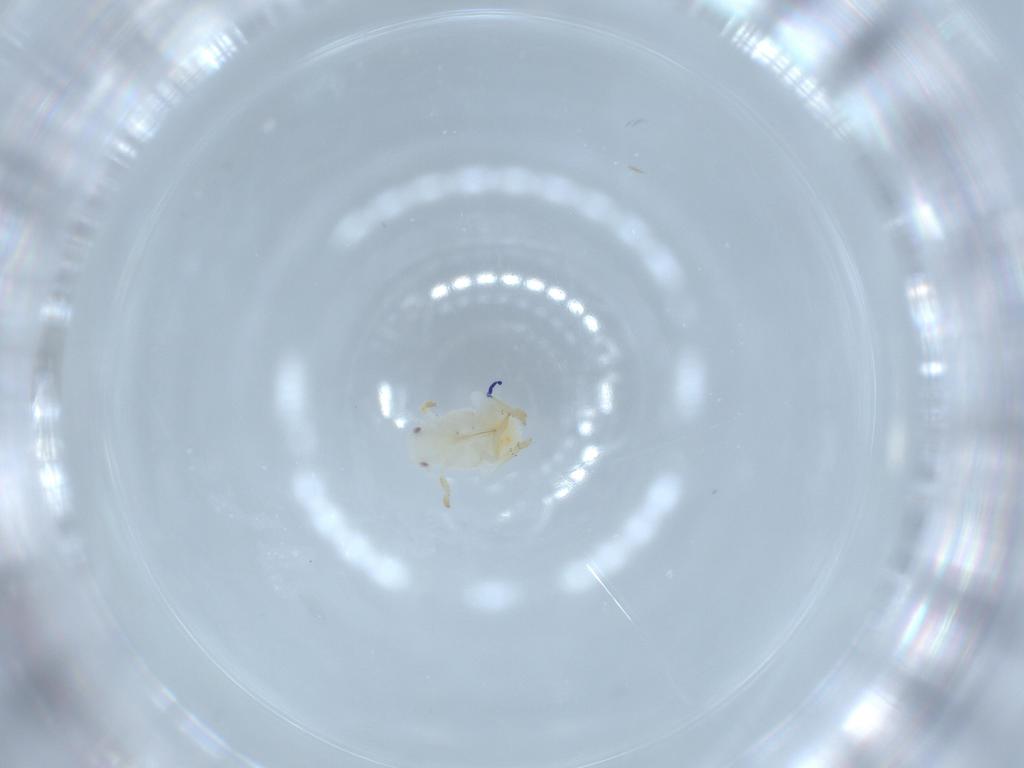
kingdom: Animalia
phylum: Arthropoda
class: Insecta
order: Hemiptera
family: Flatidae
